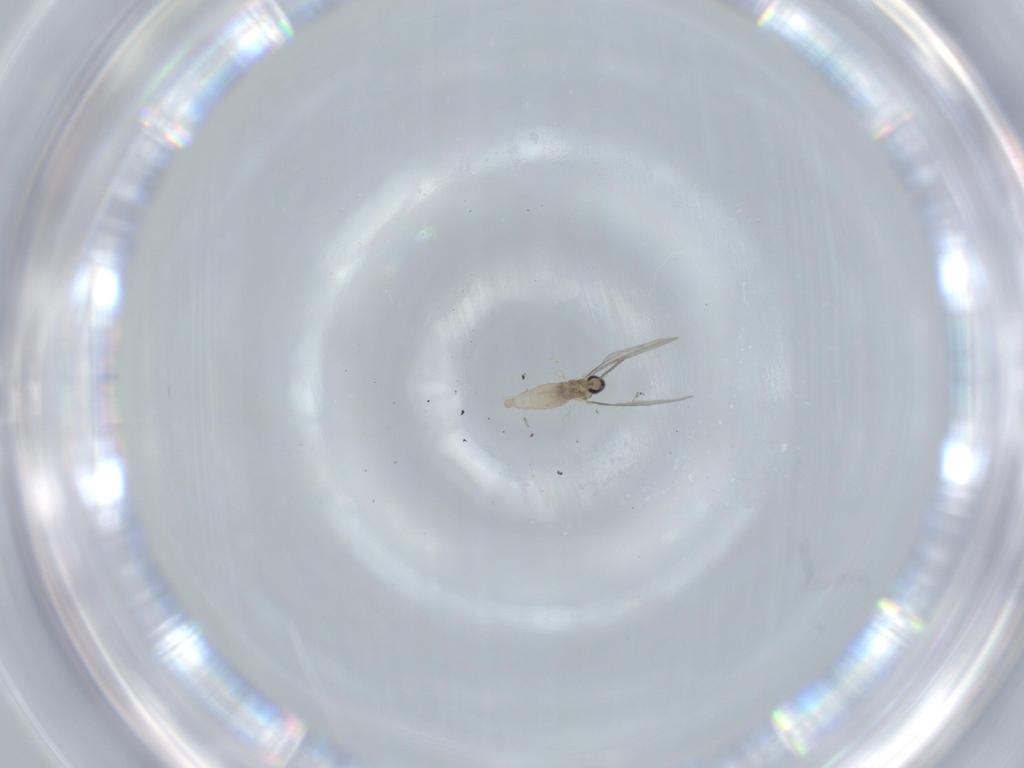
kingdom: Animalia
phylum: Arthropoda
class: Insecta
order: Diptera
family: Cecidomyiidae
